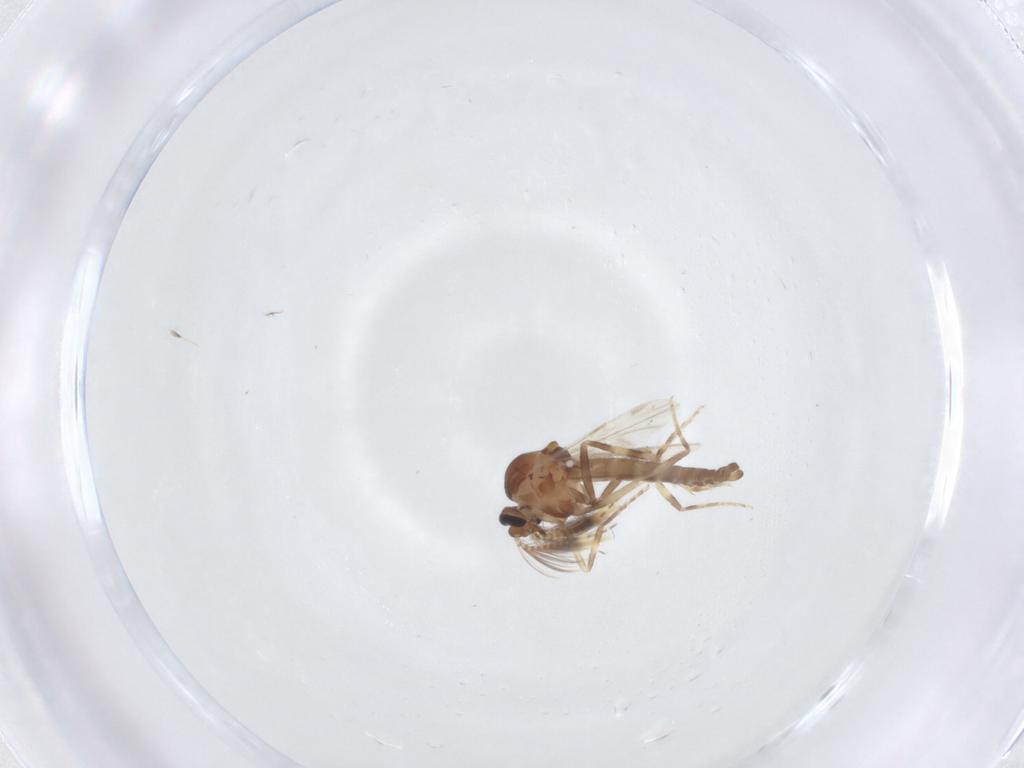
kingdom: Animalia
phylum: Arthropoda
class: Insecta
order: Diptera
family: Ceratopogonidae
